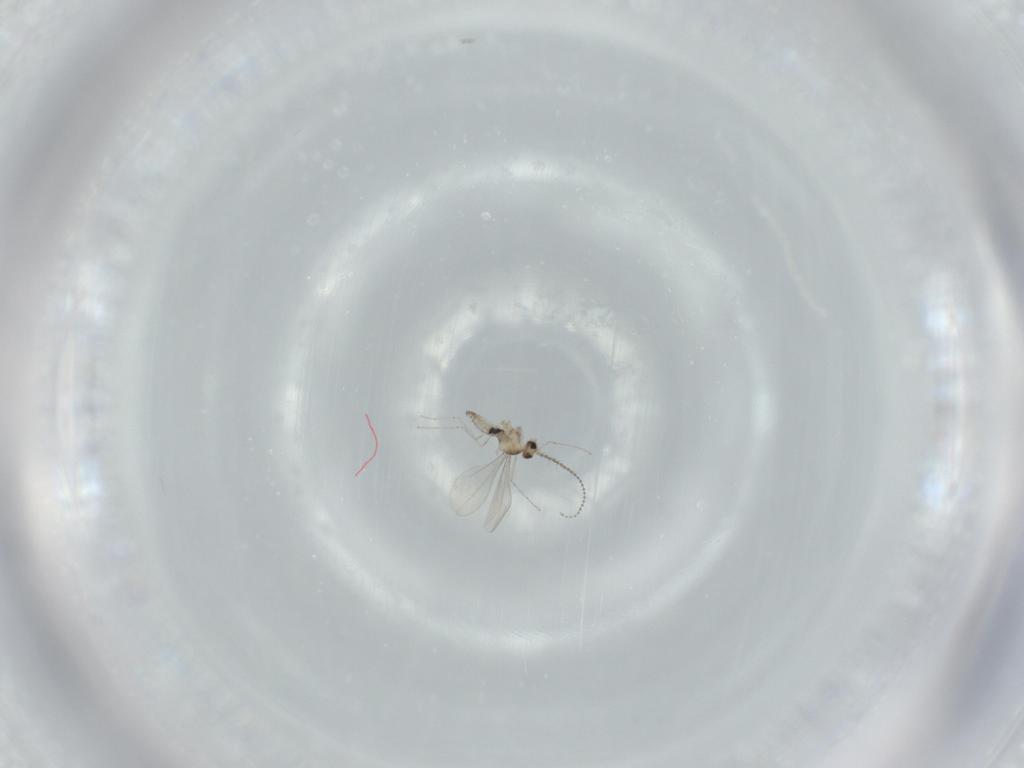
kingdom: Animalia
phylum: Arthropoda
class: Insecta
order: Diptera
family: Cecidomyiidae
